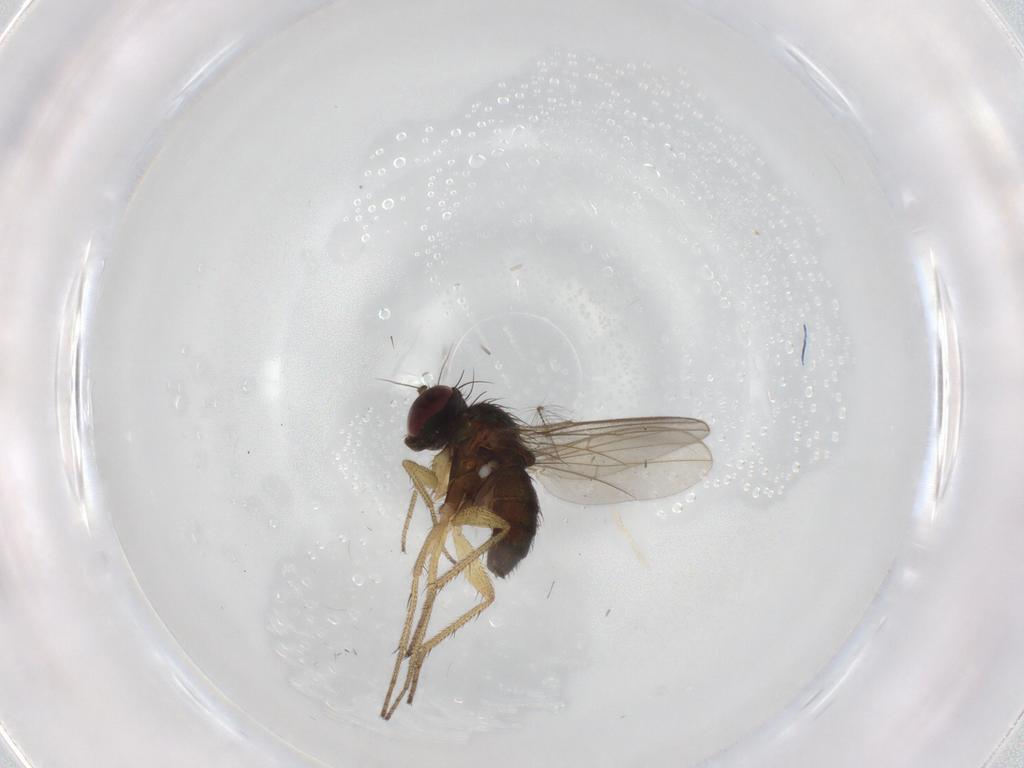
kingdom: Animalia
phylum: Arthropoda
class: Insecta
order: Diptera
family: Dolichopodidae
